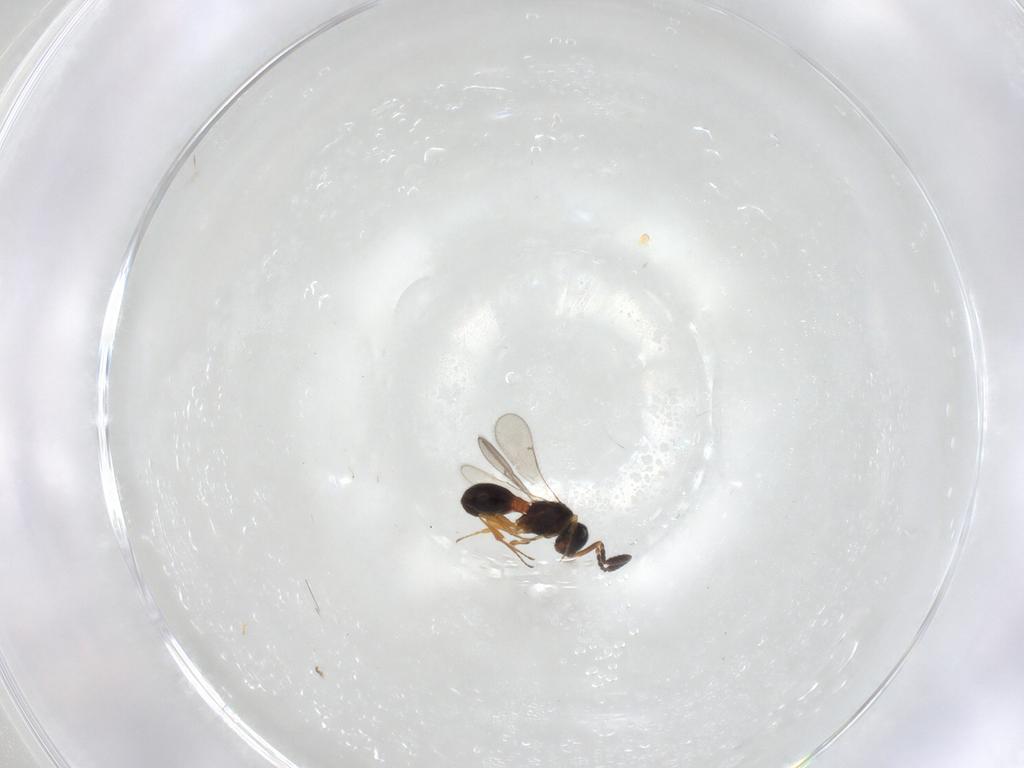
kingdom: Animalia
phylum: Arthropoda
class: Insecta
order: Hymenoptera
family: Scelionidae
